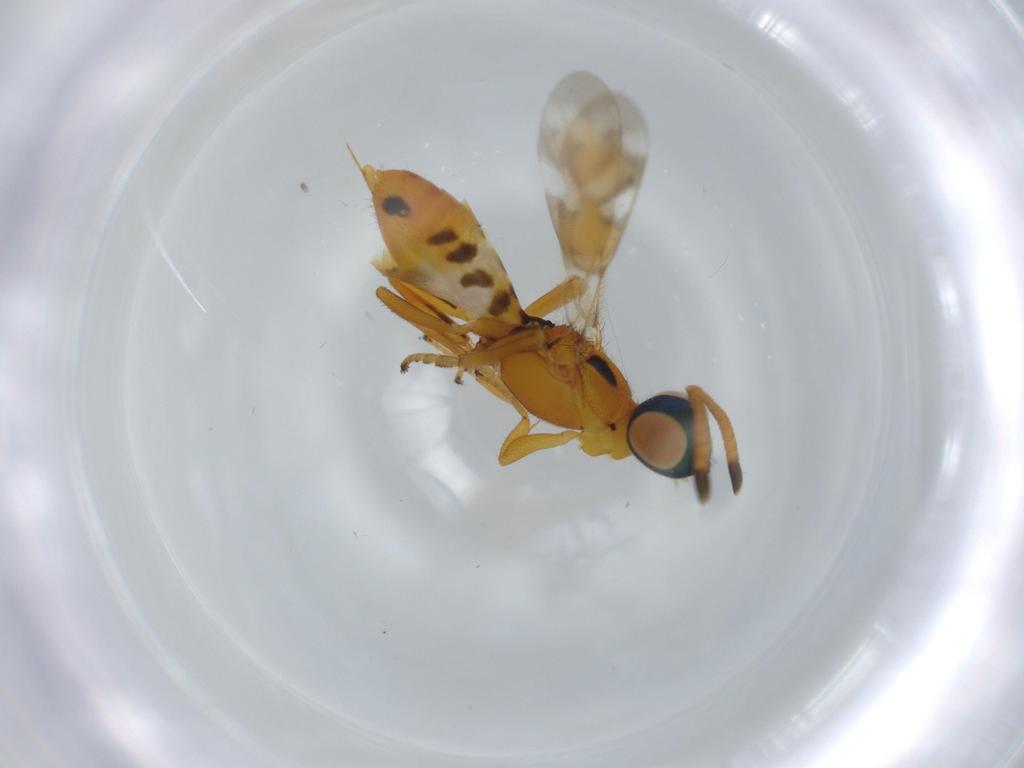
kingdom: Animalia
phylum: Arthropoda
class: Insecta
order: Hymenoptera
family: Eupelmidae
